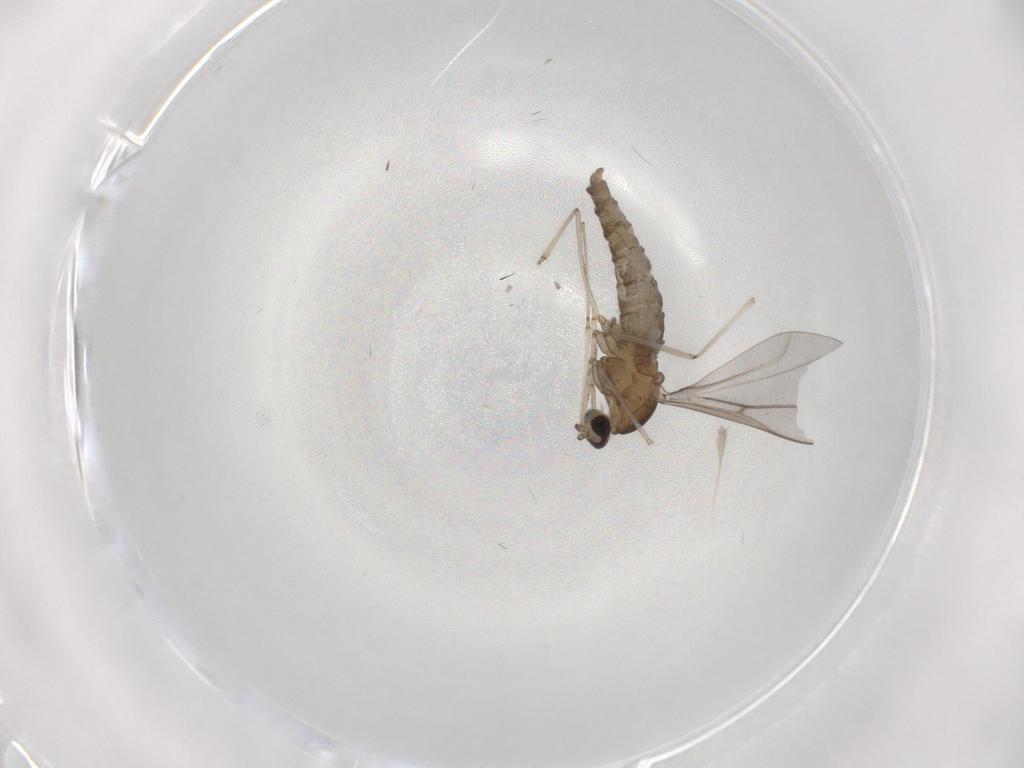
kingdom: Animalia
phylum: Arthropoda
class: Insecta
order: Diptera
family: Cecidomyiidae
